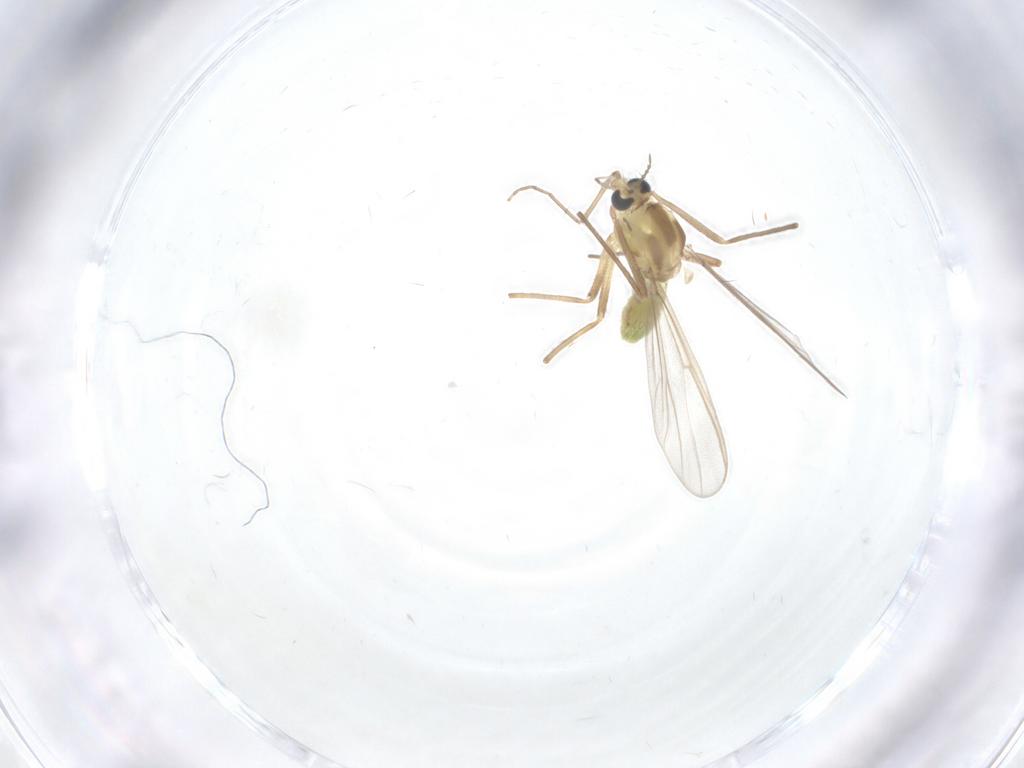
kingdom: Animalia
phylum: Arthropoda
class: Insecta
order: Diptera
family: Chironomidae
